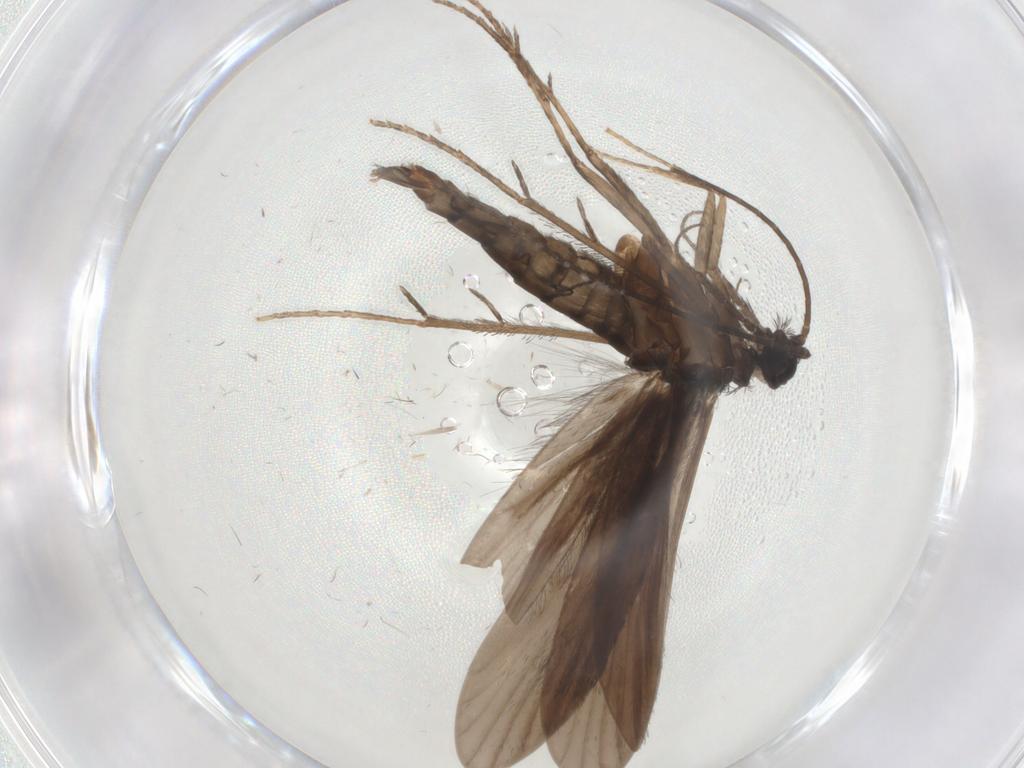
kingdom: Animalia
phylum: Arthropoda
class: Insecta
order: Trichoptera
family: Xiphocentronidae
